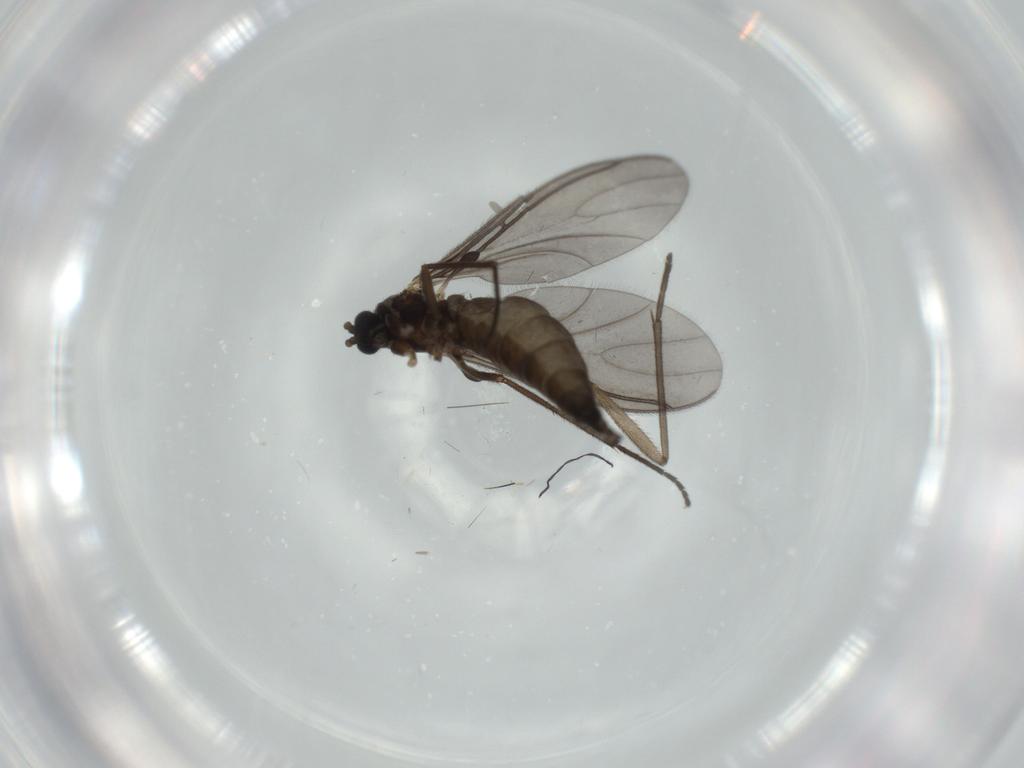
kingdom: Animalia
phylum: Arthropoda
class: Insecta
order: Diptera
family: Sciaridae
